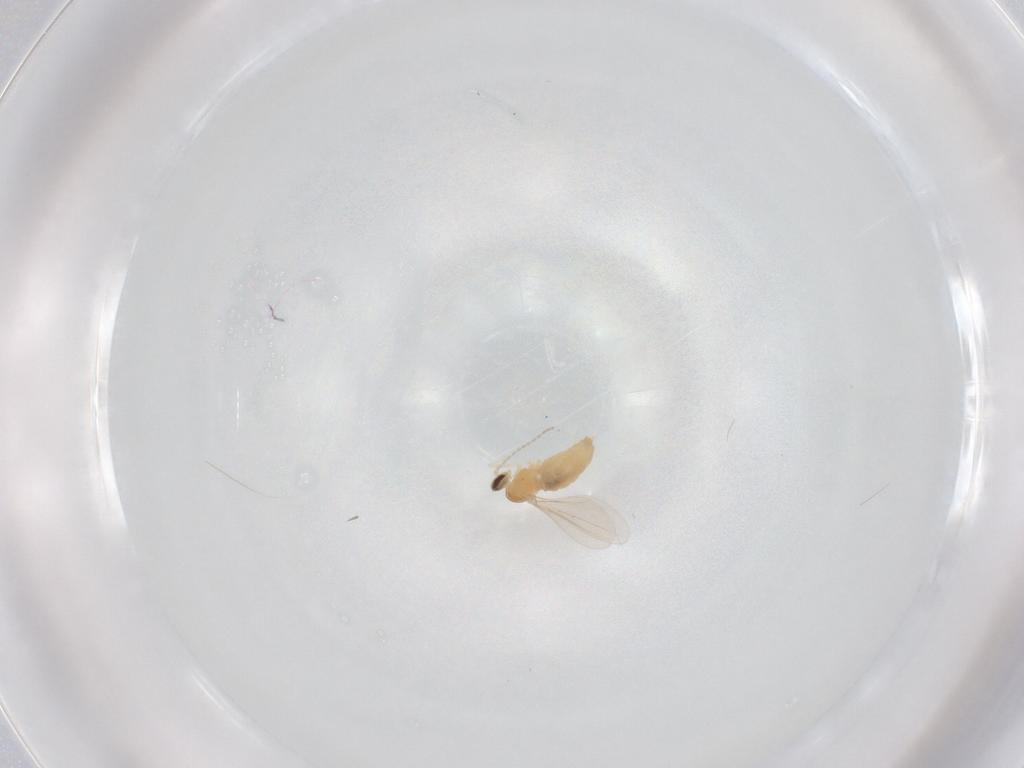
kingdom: Animalia
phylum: Arthropoda
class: Insecta
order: Diptera
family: Cecidomyiidae
